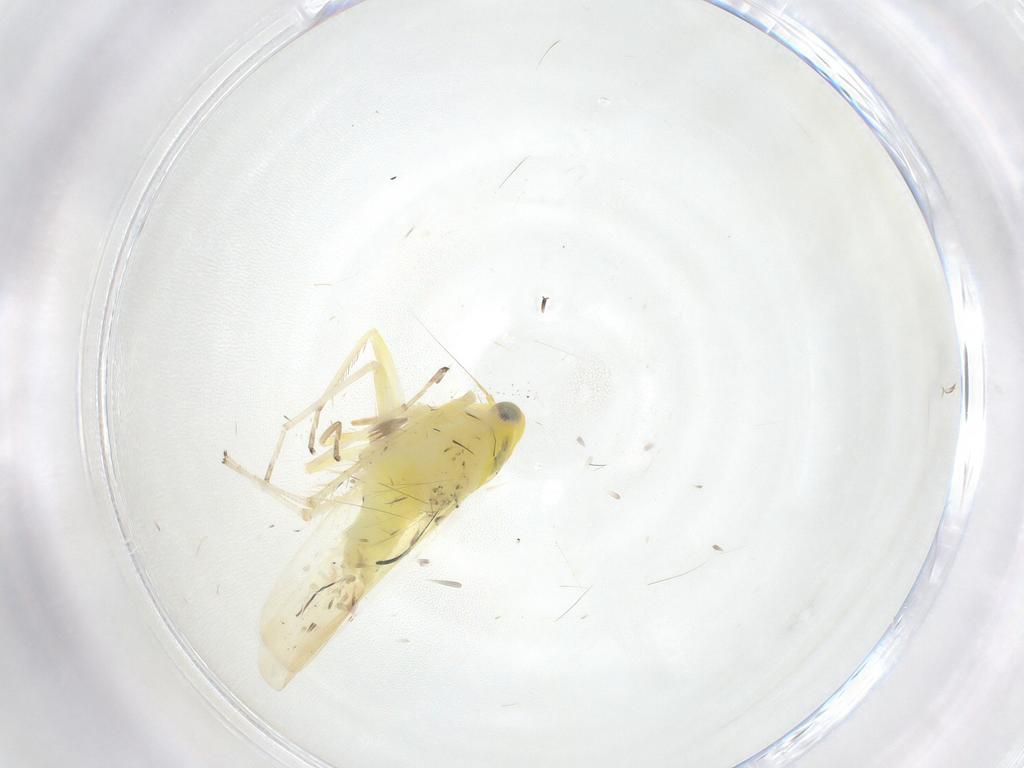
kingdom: Animalia
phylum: Arthropoda
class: Insecta
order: Hemiptera
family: Cicadellidae
